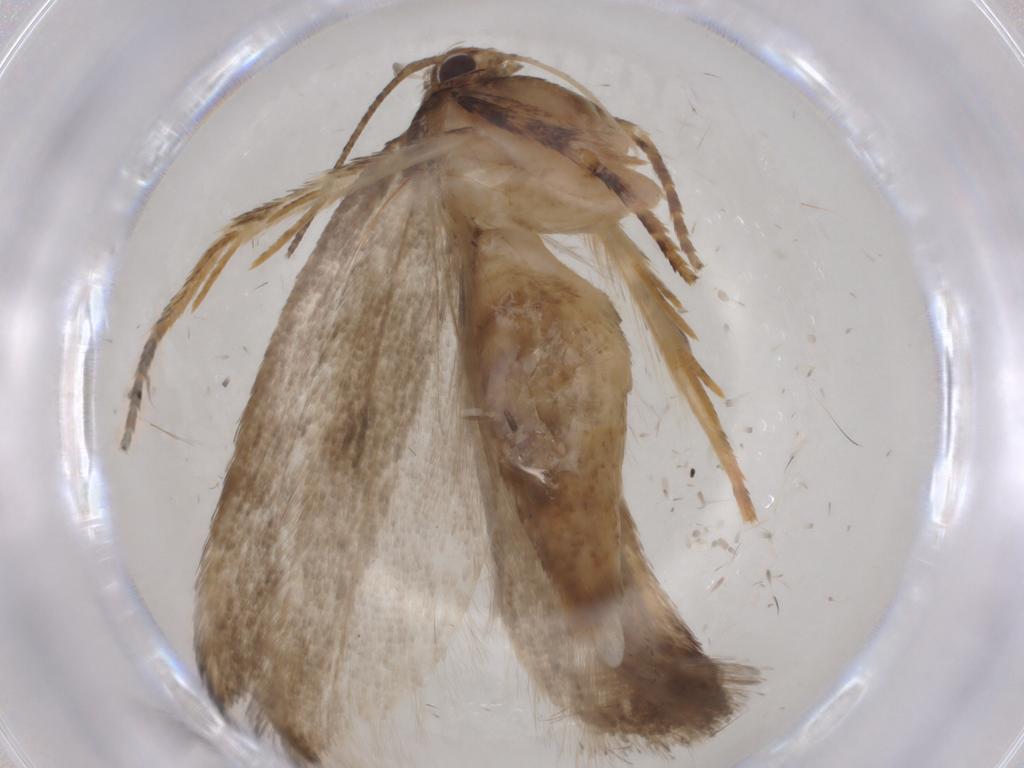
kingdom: Animalia
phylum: Arthropoda
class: Insecta
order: Lepidoptera
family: Gelechiidae
